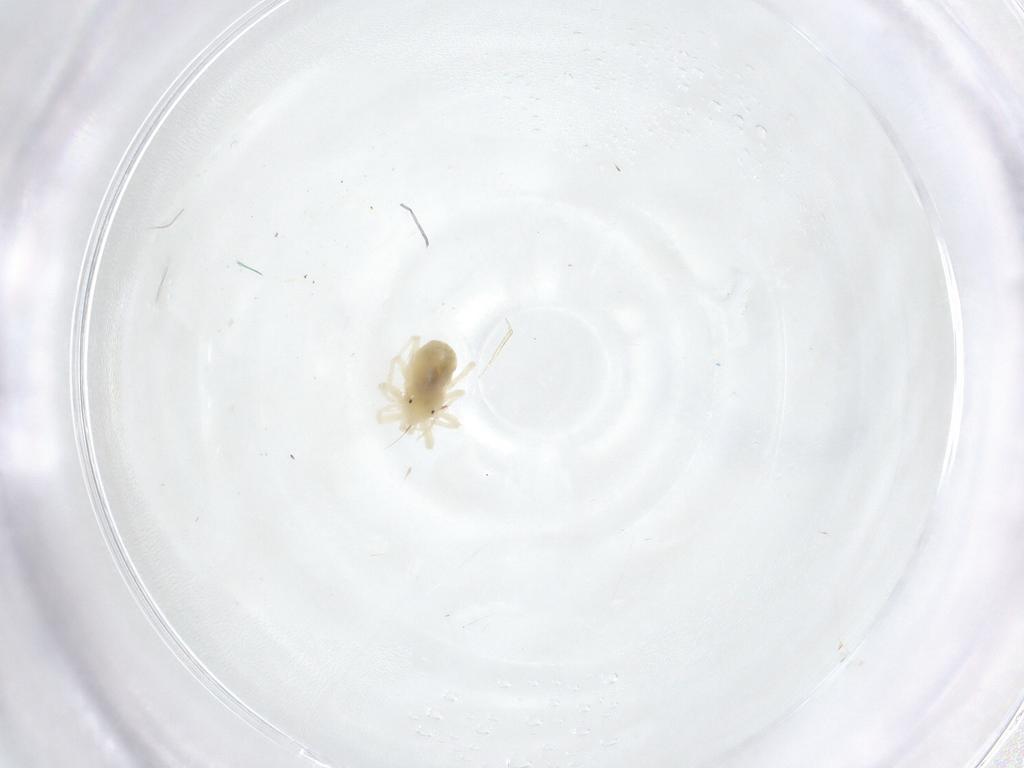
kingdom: Animalia
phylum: Arthropoda
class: Arachnida
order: Trombidiformes
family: Anystidae
